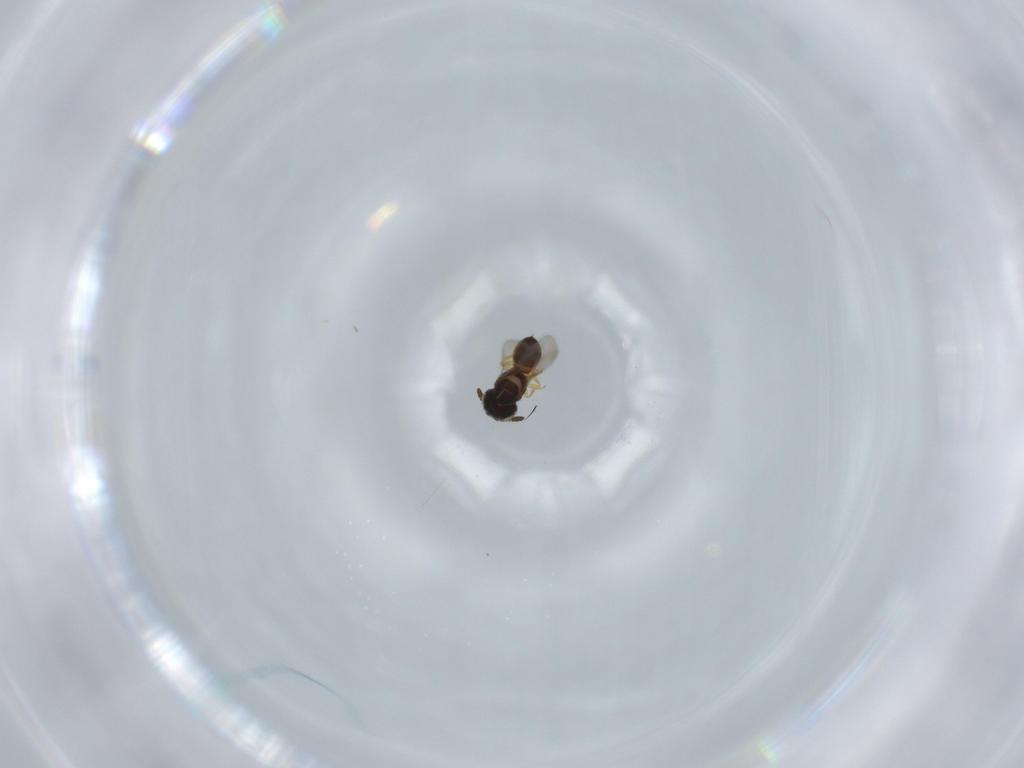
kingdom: Animalia
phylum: Arthropoda
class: Insecta
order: Hymenoptera
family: Scelionidae
